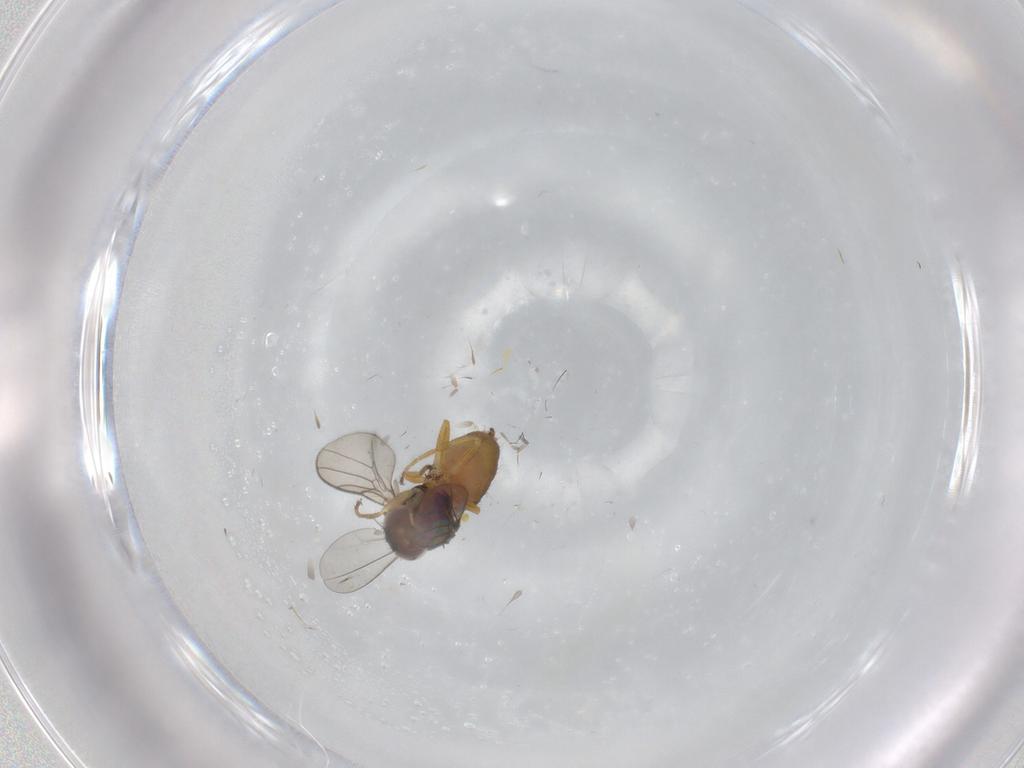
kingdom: Animalia
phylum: Arthropoda
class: Insecta
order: Diptera
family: Chloropidae
